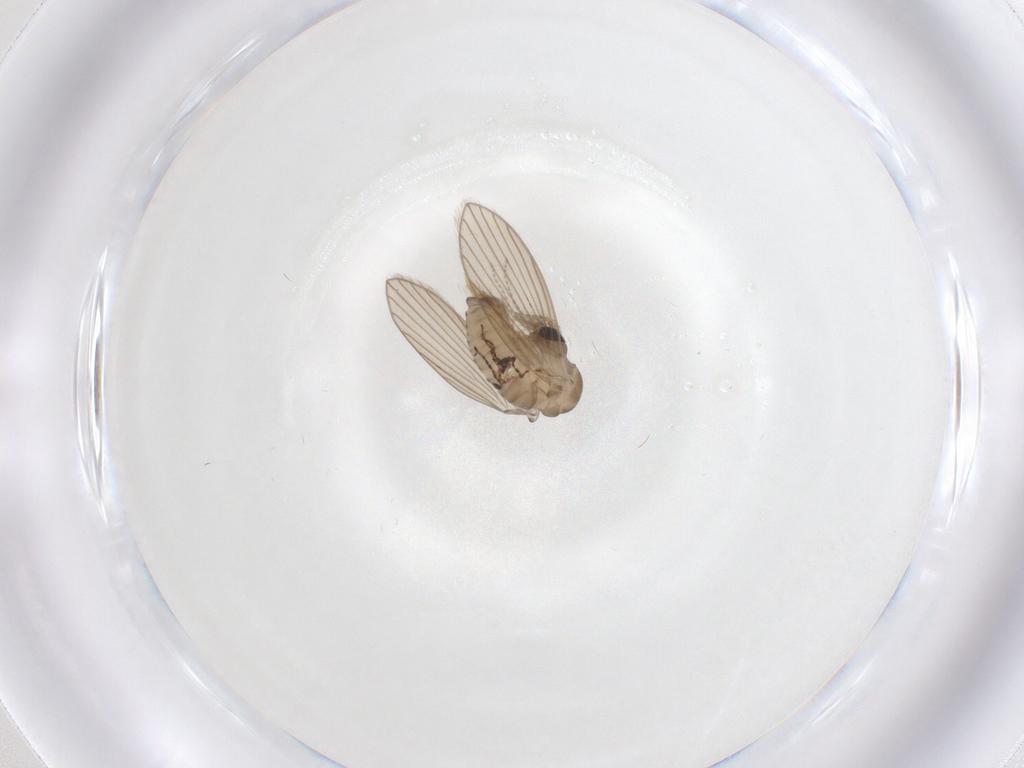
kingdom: Animalia
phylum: Arthropoda
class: Insecta
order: Diptera
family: Psychodidae
